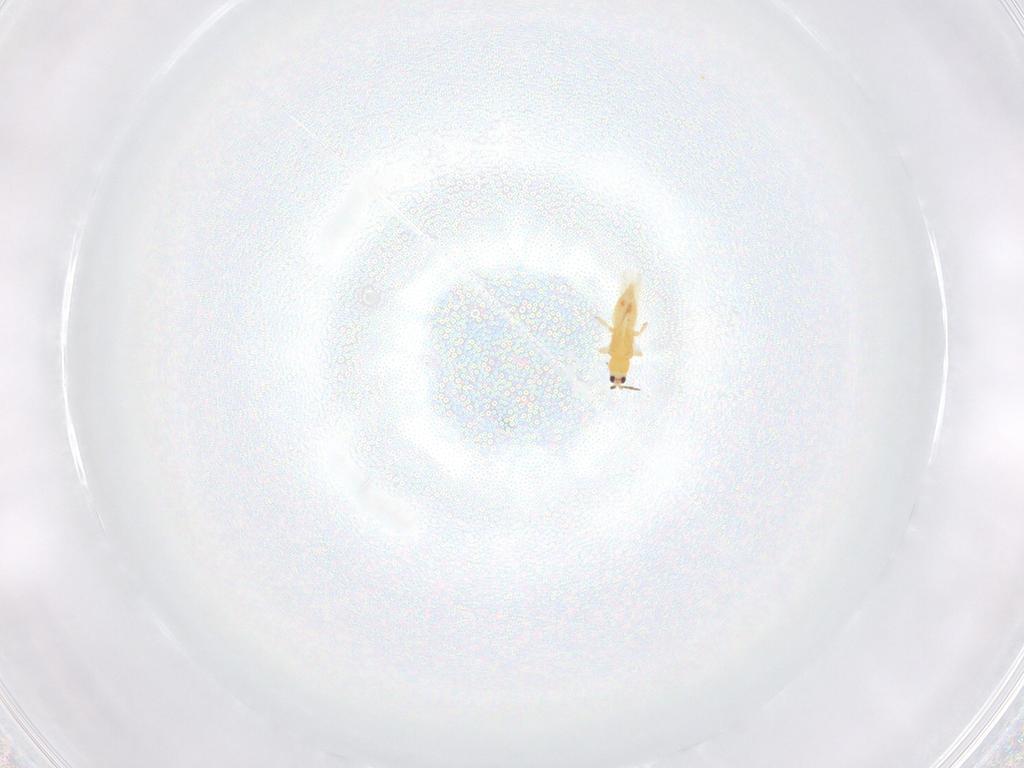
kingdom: Animalia
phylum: Arthropoda
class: Insecta
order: Thysanoptera
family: Melanthripidae
